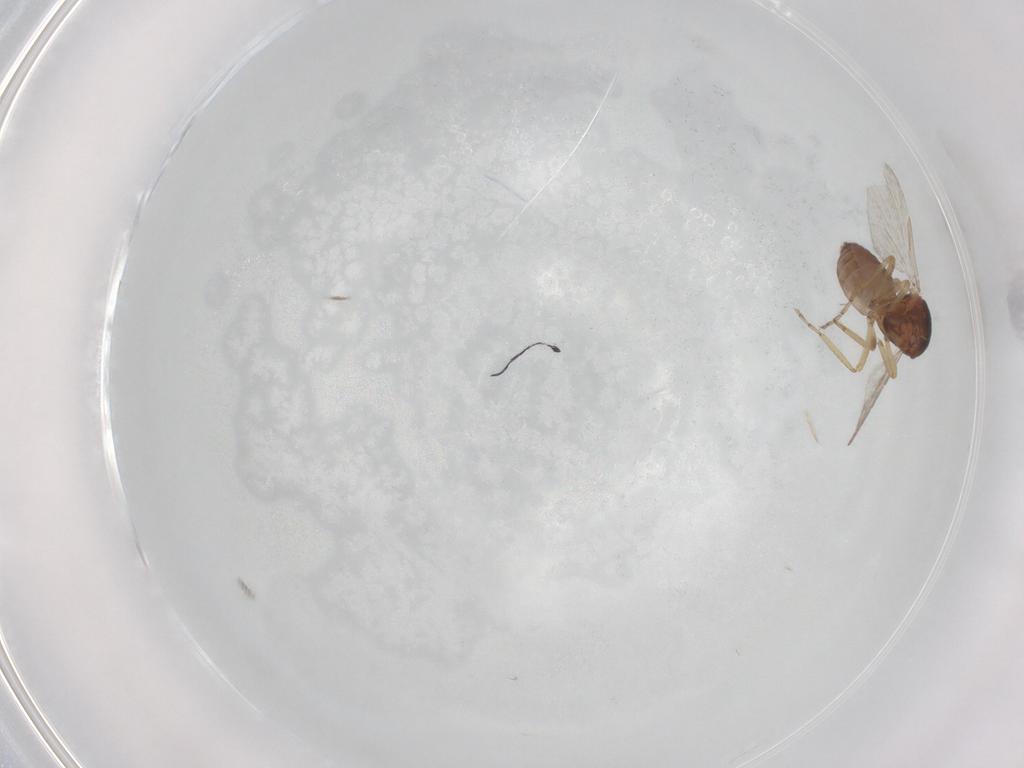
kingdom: Animalia
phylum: Arthropoda
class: Insecta
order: Diptera
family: Ceratopogonidae
